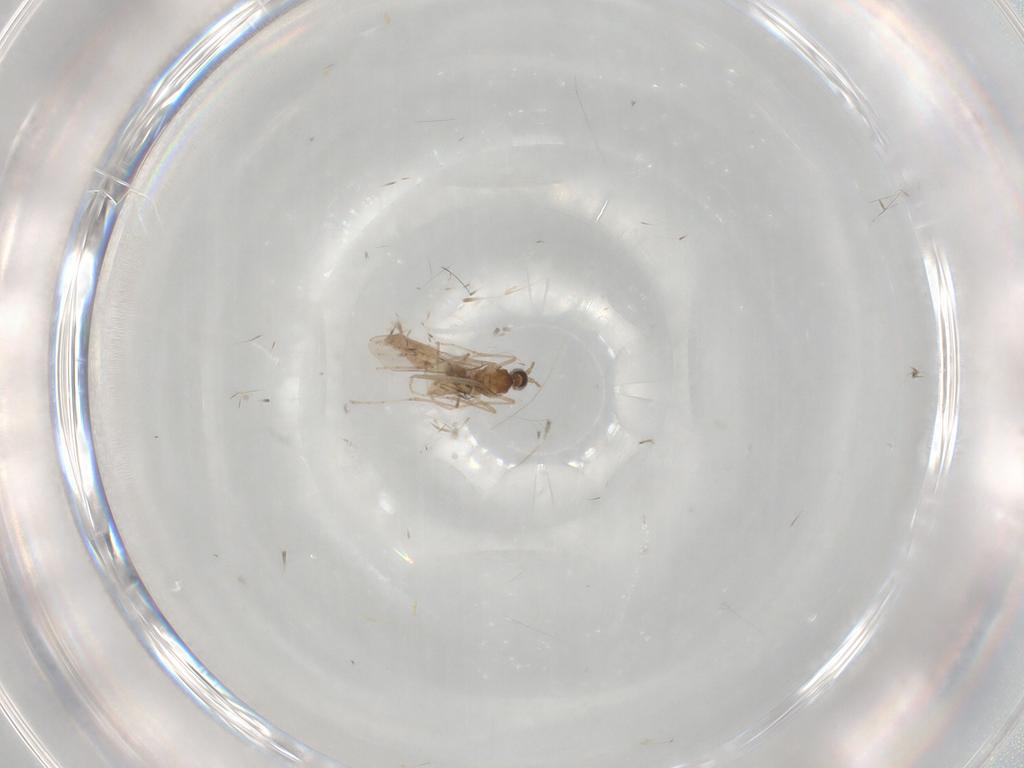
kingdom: Animalia
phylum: Arthropoda
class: Insecta
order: Diptera
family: Cecidomyiidae
